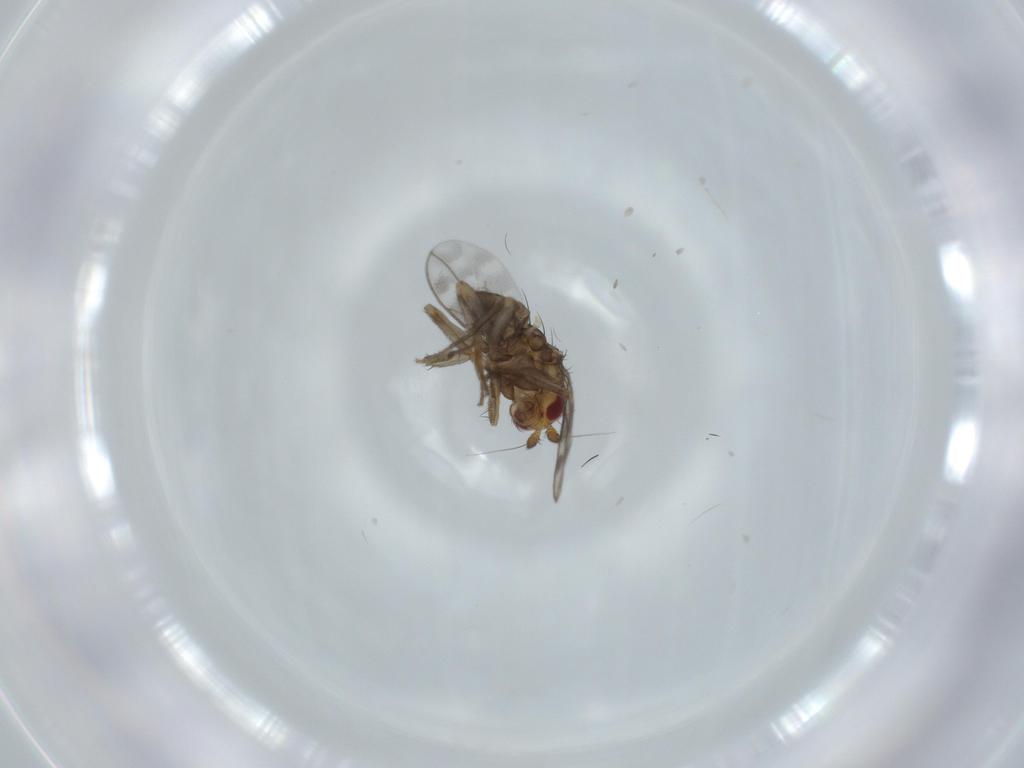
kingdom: Animalia
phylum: Arthropoda
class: Insecta
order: Diptera
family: Sphaeroceridae
